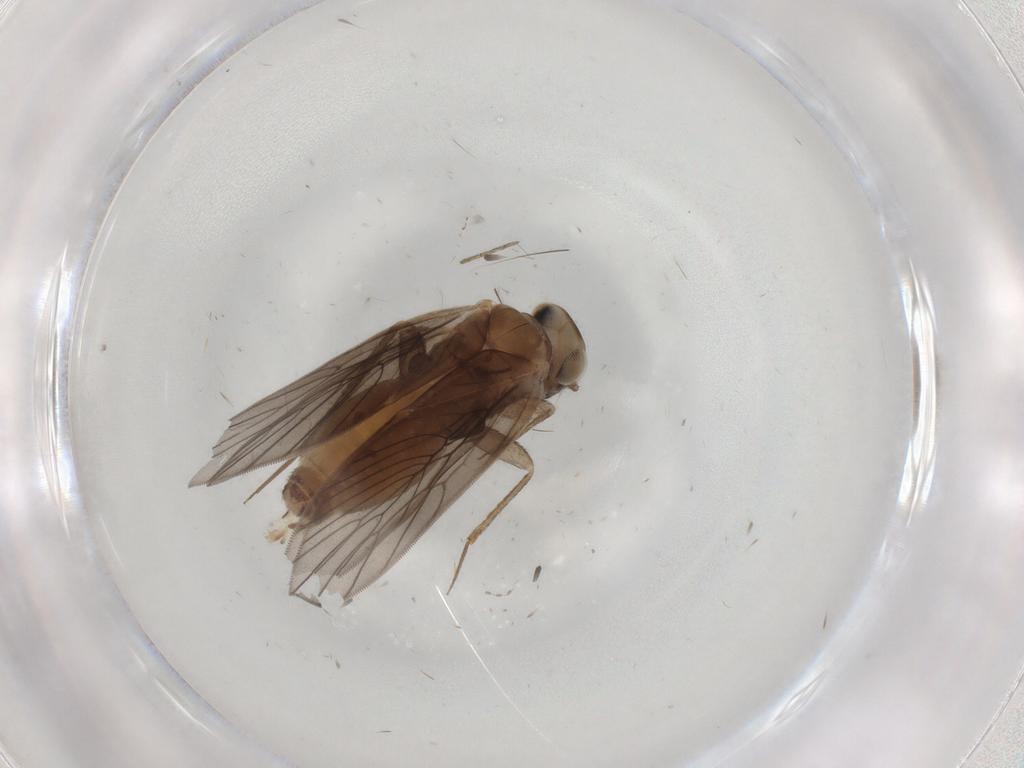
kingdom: Animalia
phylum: Arthropoda
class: Insecta
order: Psocodea
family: Lepidopsocidae
